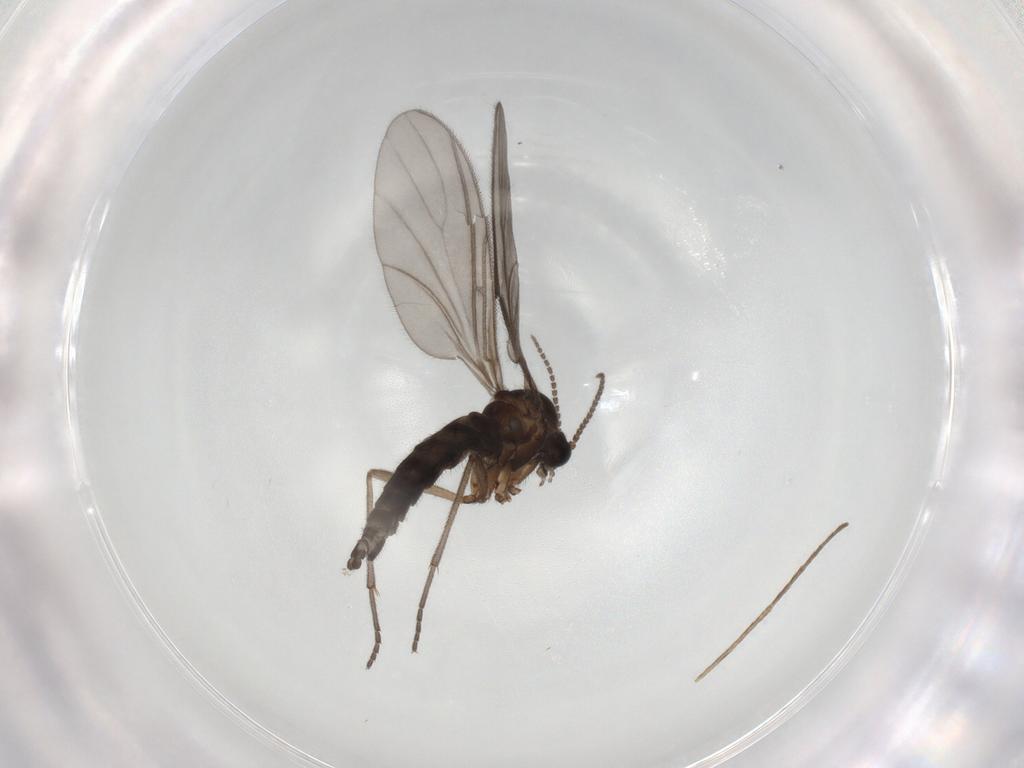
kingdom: Animalia
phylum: Arthropoda
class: Insecta
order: Diptera
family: Sciaridae
